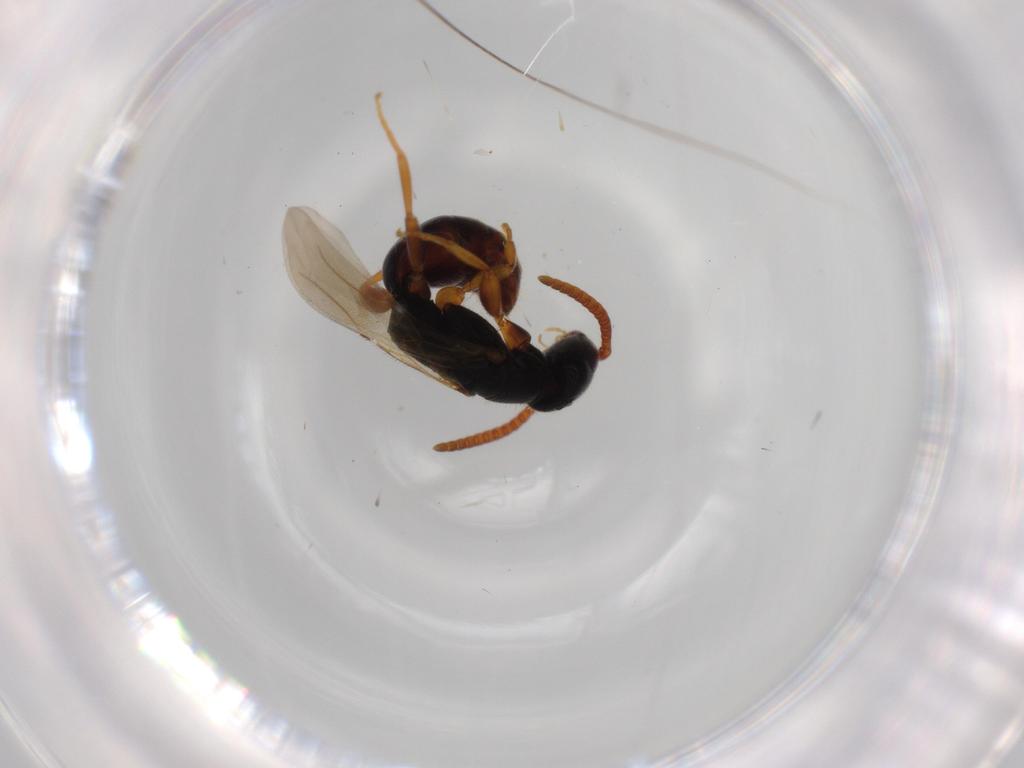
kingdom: Animalia
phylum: Arthropoda
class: Insecta
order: Hymenoptera
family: Bethylidae
